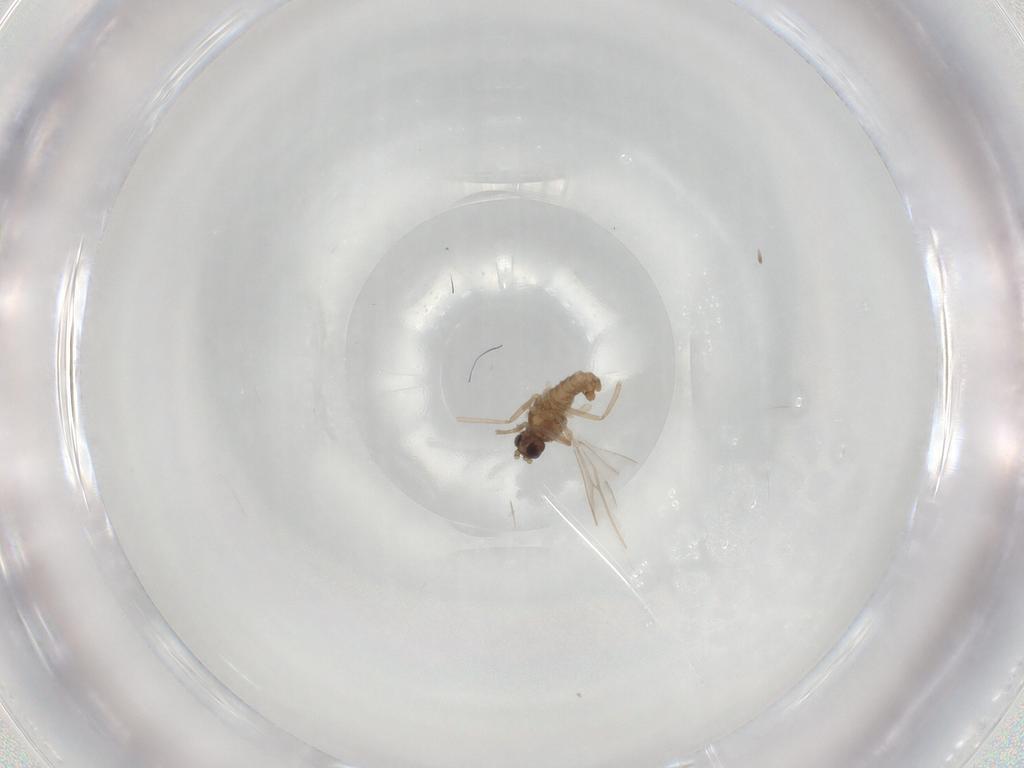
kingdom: Animalia
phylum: Arthropoda
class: Insecta
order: Diptera
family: Cecidomyiidae
